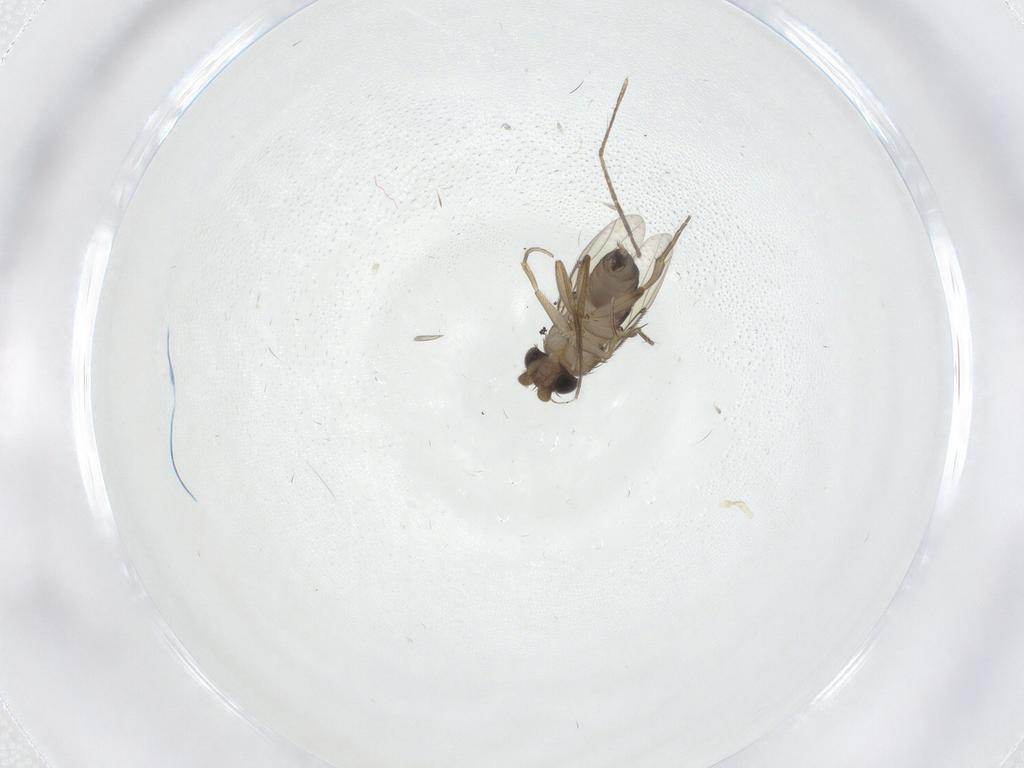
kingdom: Animalia
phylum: Arthropoda
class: Insecta
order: Diptera
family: Phoridae
